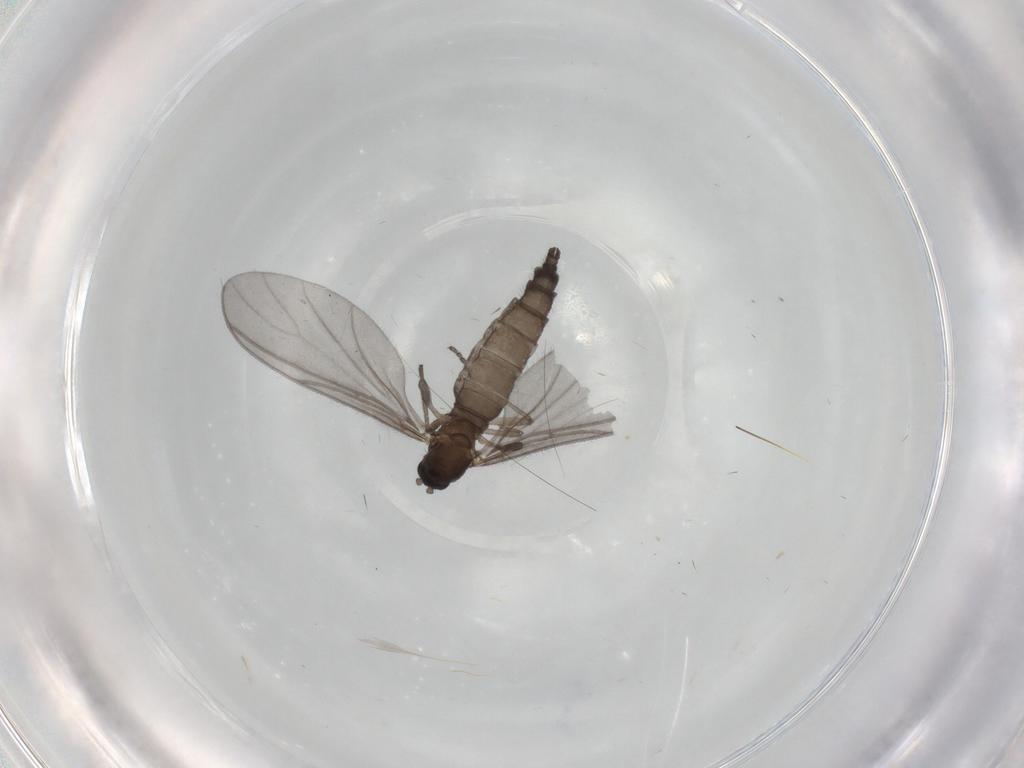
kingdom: Animalia
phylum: Arthropoda
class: Insecta
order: Diptera
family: Sciaridae
